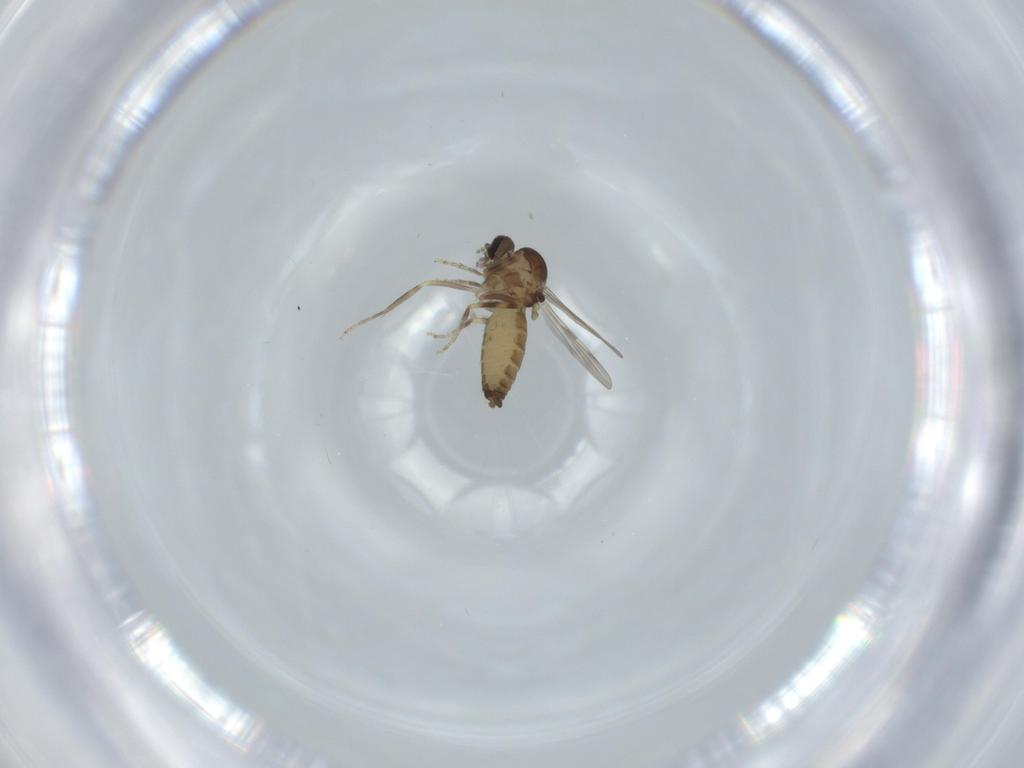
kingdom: Animalia
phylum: Arthropoda
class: Insecta
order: Diptera
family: Ceratopogonidae
